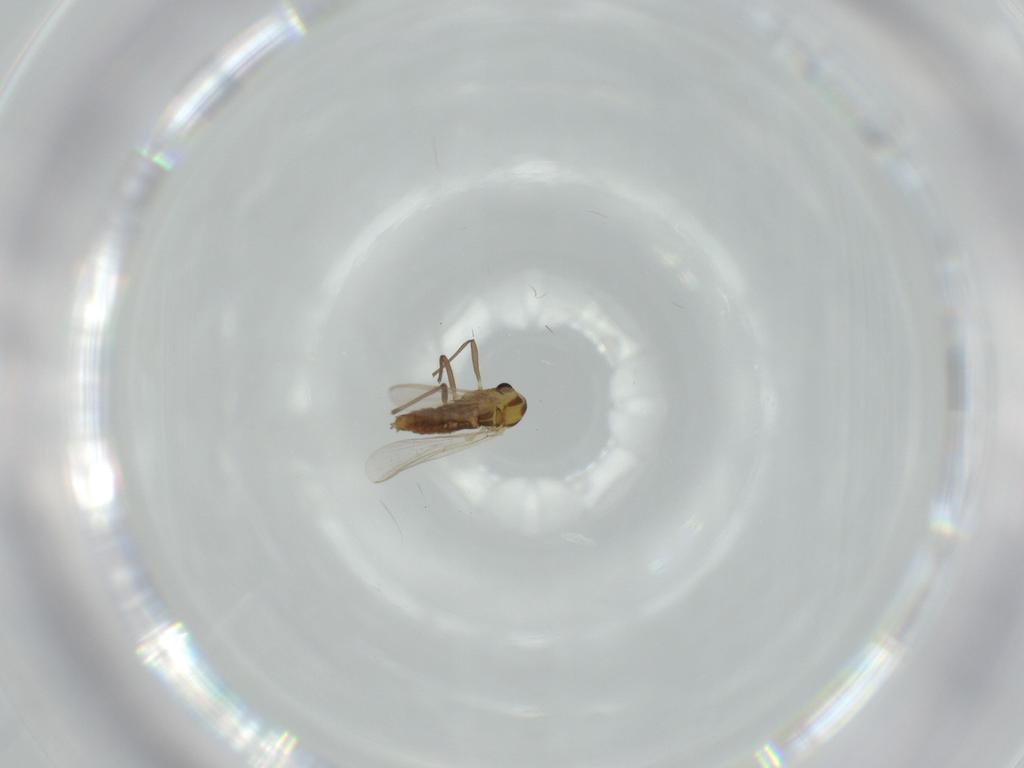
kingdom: Animalia
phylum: Arthropoda
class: Insecta
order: Diptera
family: Chironomidae
